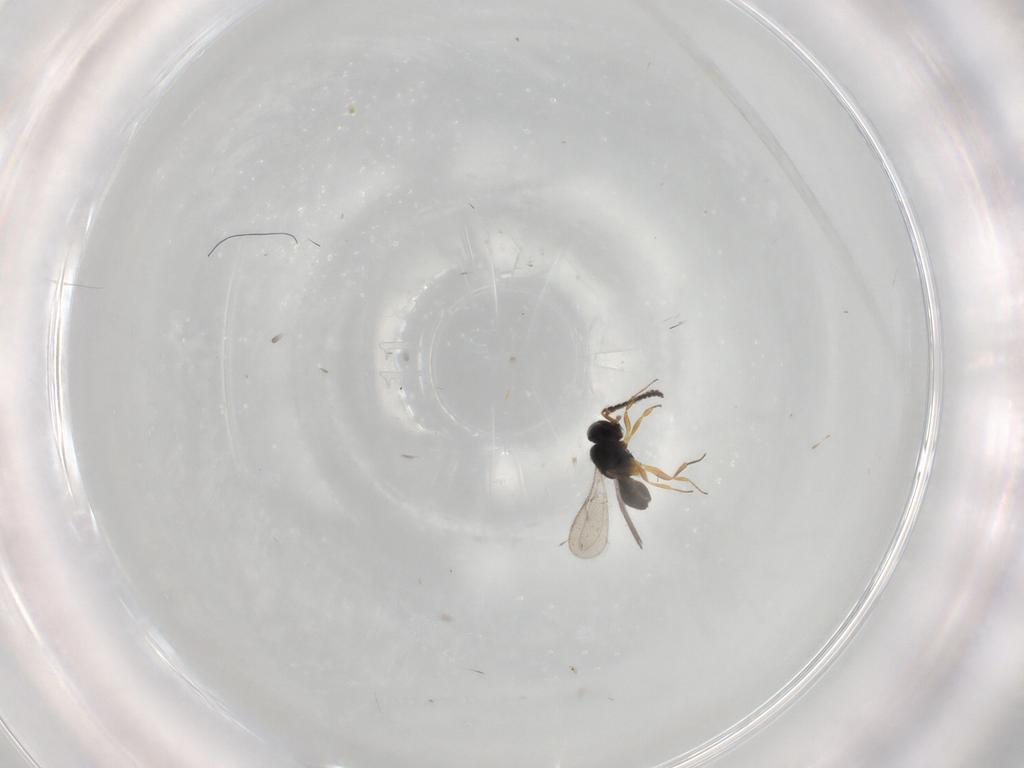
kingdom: Animalia
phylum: Arthropoda
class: Insecta
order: Hymenoptera
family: Scelionidae
